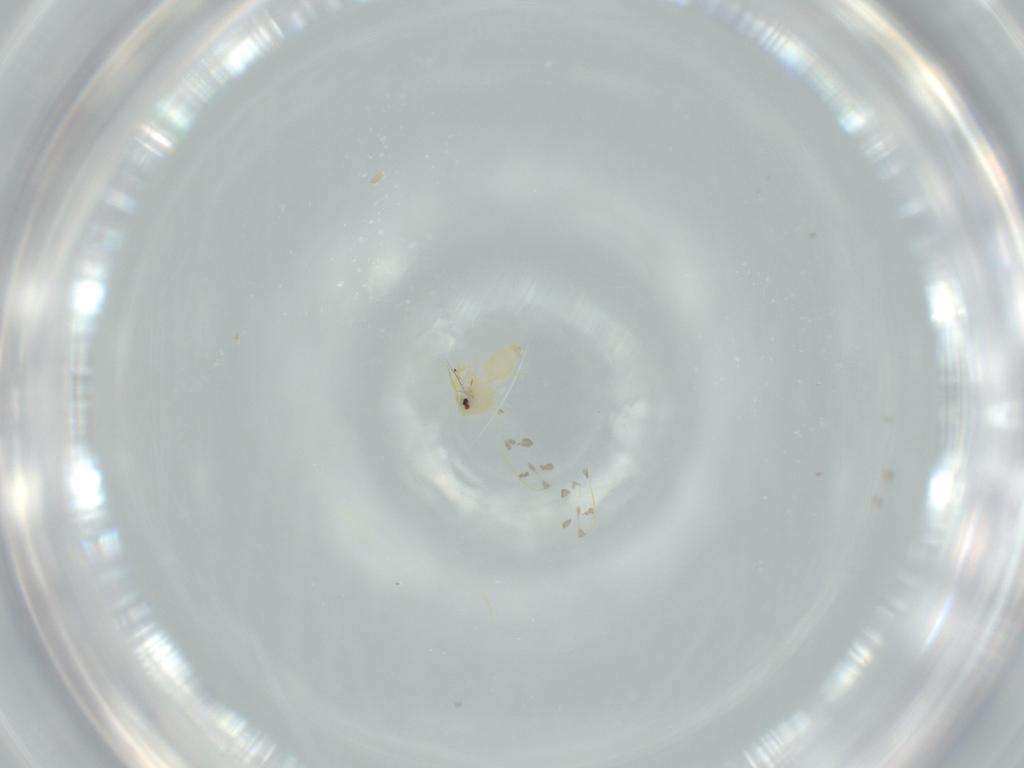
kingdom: Animalia
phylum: Arthropoda
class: Insecta
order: Hemiptera
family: Aleyrodidae
